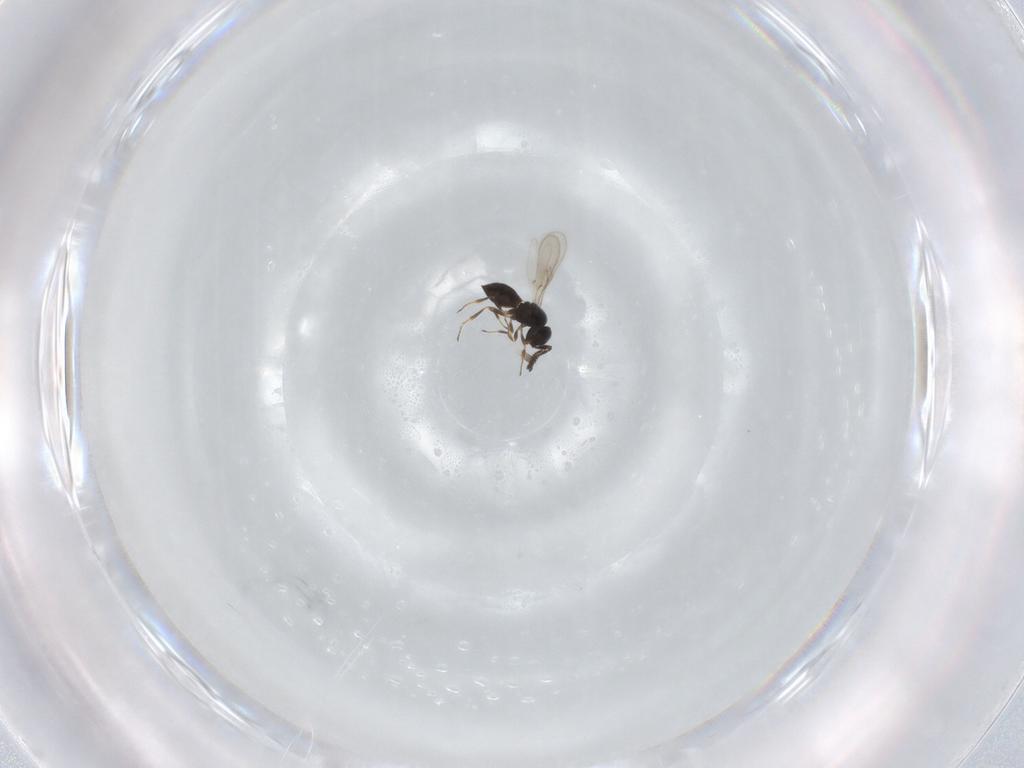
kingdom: Animalia
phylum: Arthropoda
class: Insecta
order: Hymenoptera
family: Scelionidae
